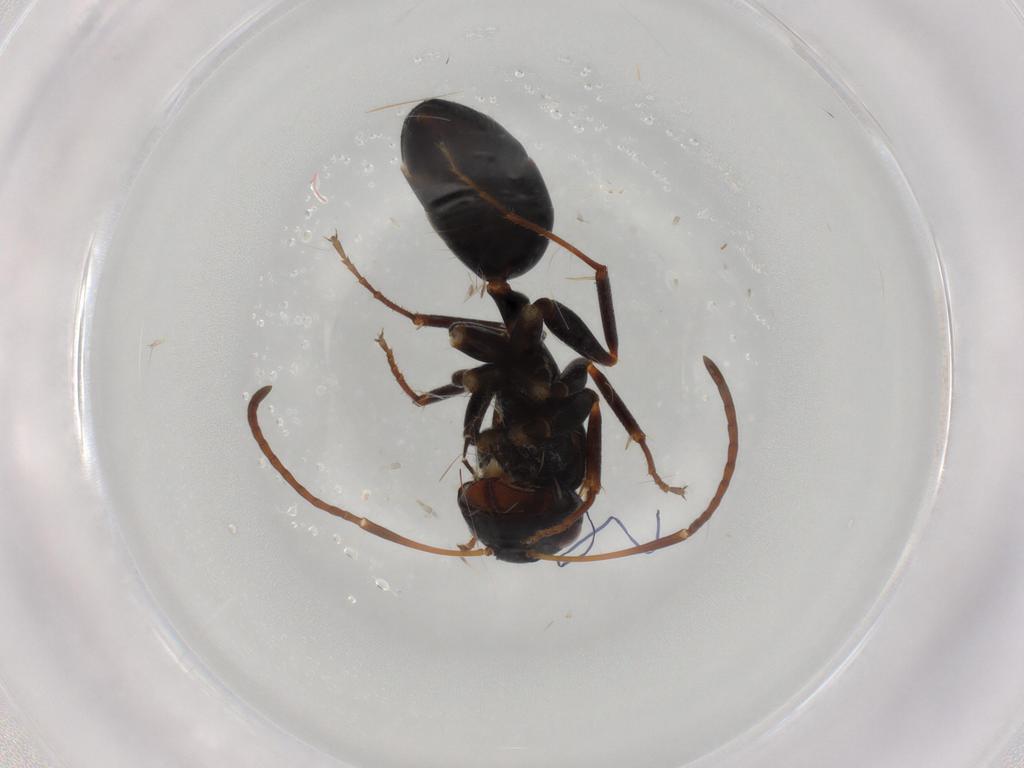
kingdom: Animalia
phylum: Arthropoda
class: Insecta
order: Hymenoptera
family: Formicidae
